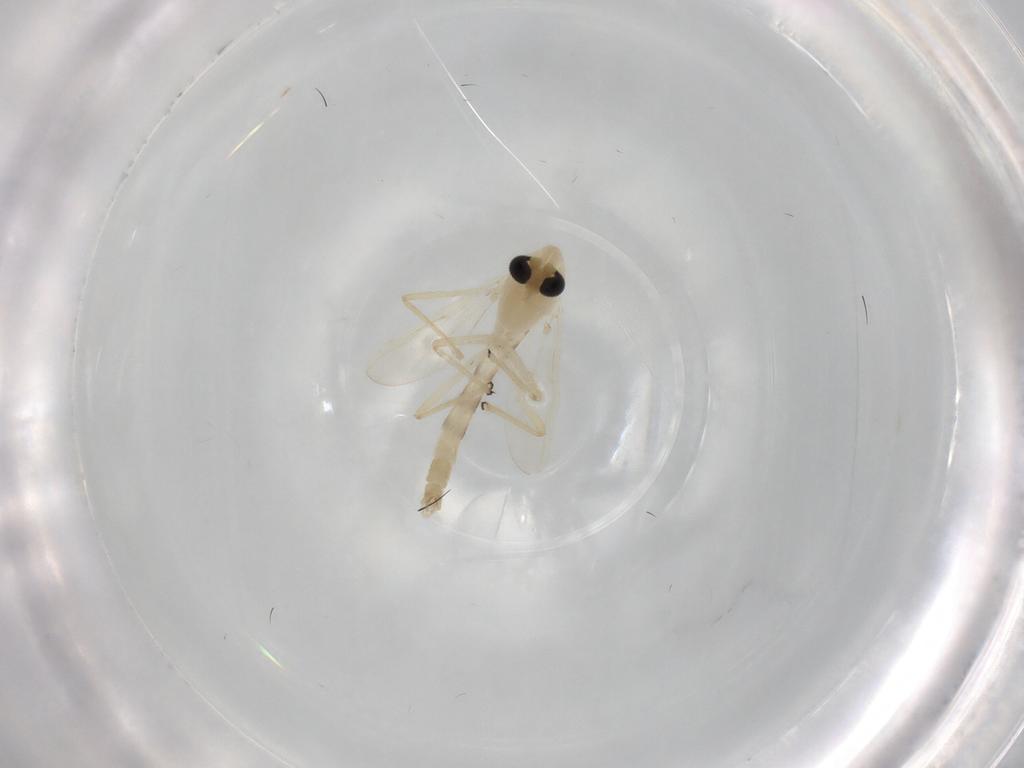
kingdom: Animalia
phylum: Arthropoda
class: Insecta
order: Diptera
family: Chironomidae
